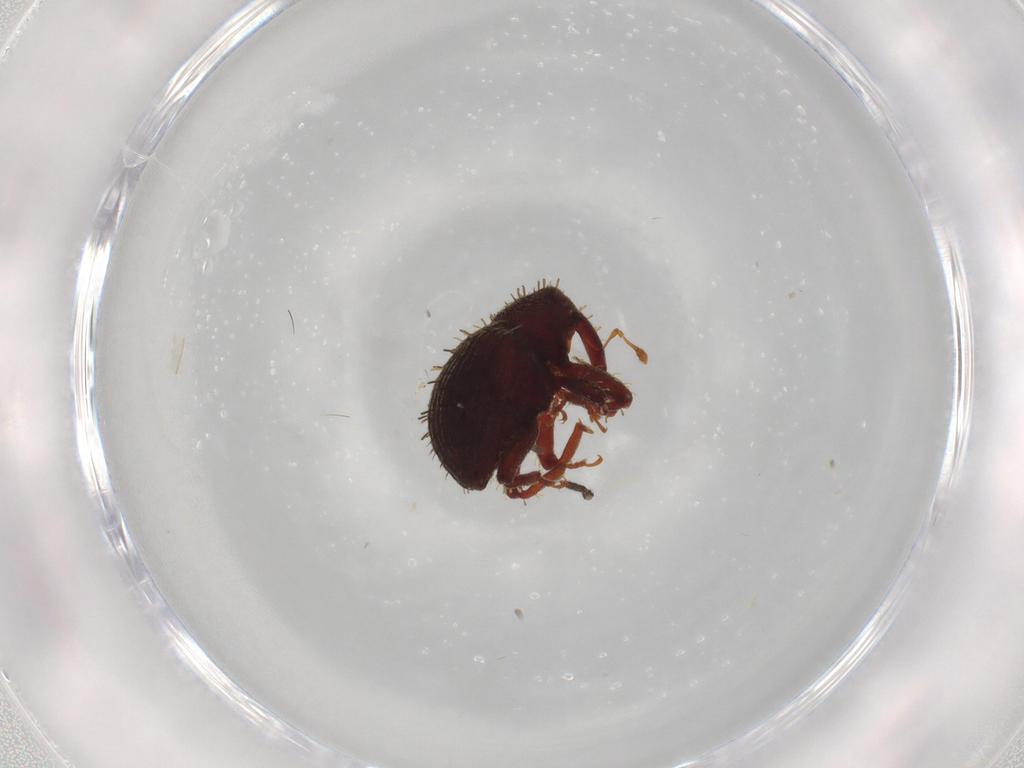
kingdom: Animalia
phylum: Arthropoda
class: Insecta
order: Coleoptera
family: Curculionidae
